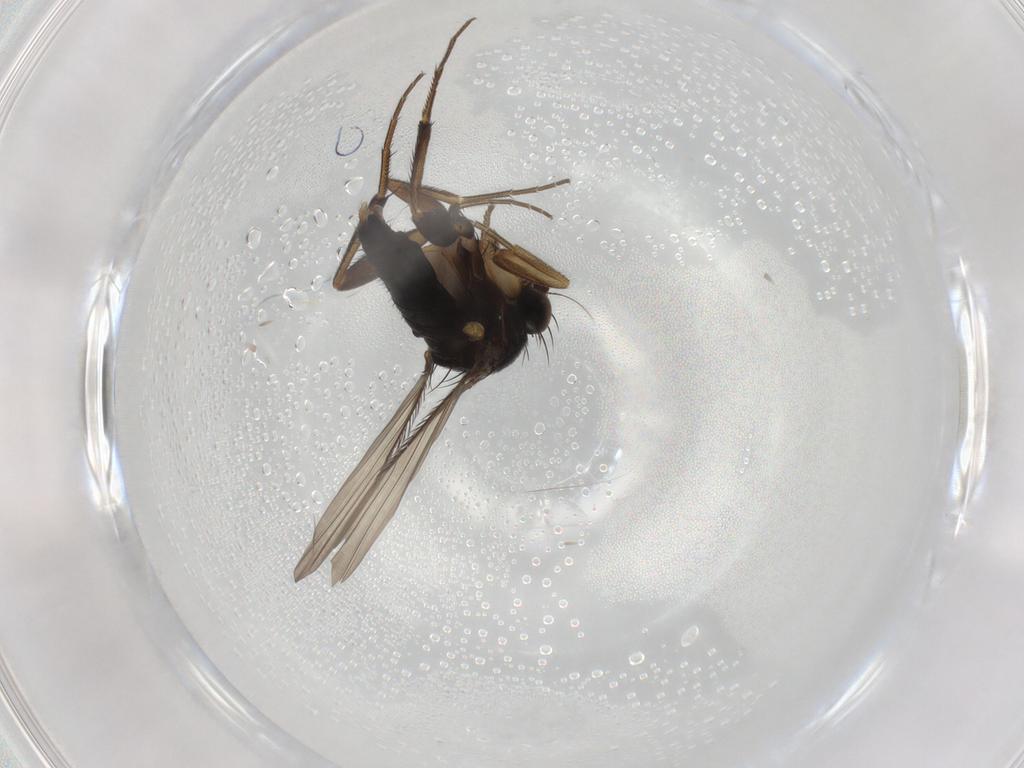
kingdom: Animalia
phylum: Arthropoda
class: Insecta
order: Diptera
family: Phoridae
